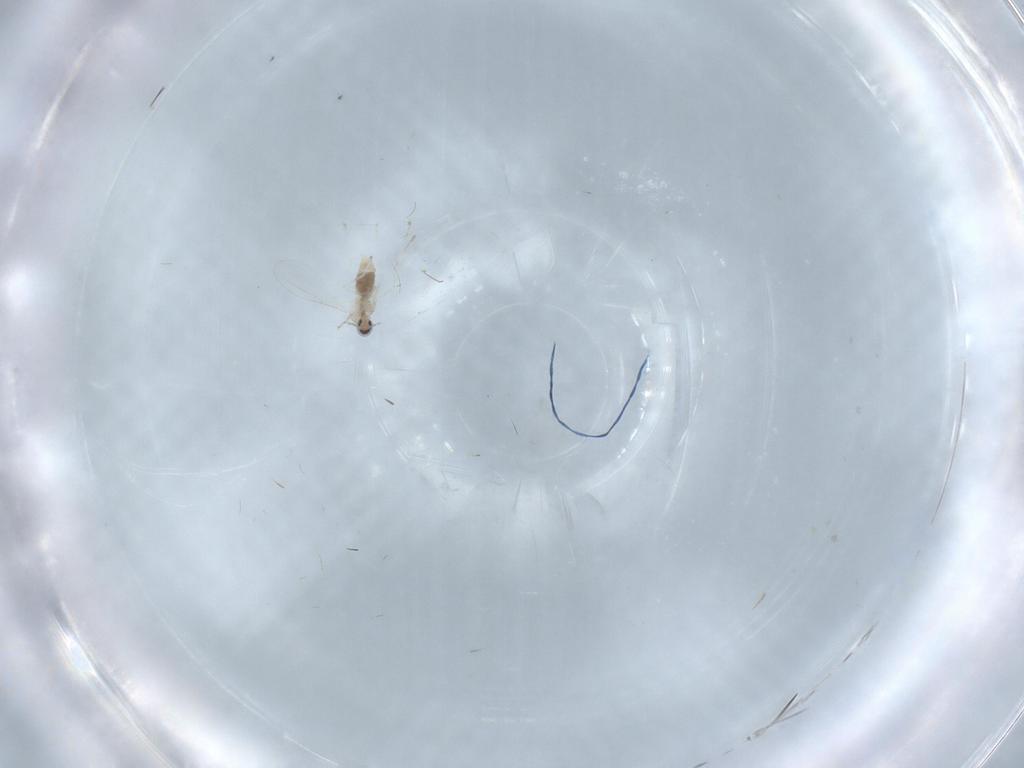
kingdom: Animalia
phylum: Arthropoda
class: Insecta
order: Diptera
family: Cecidomyiidae
